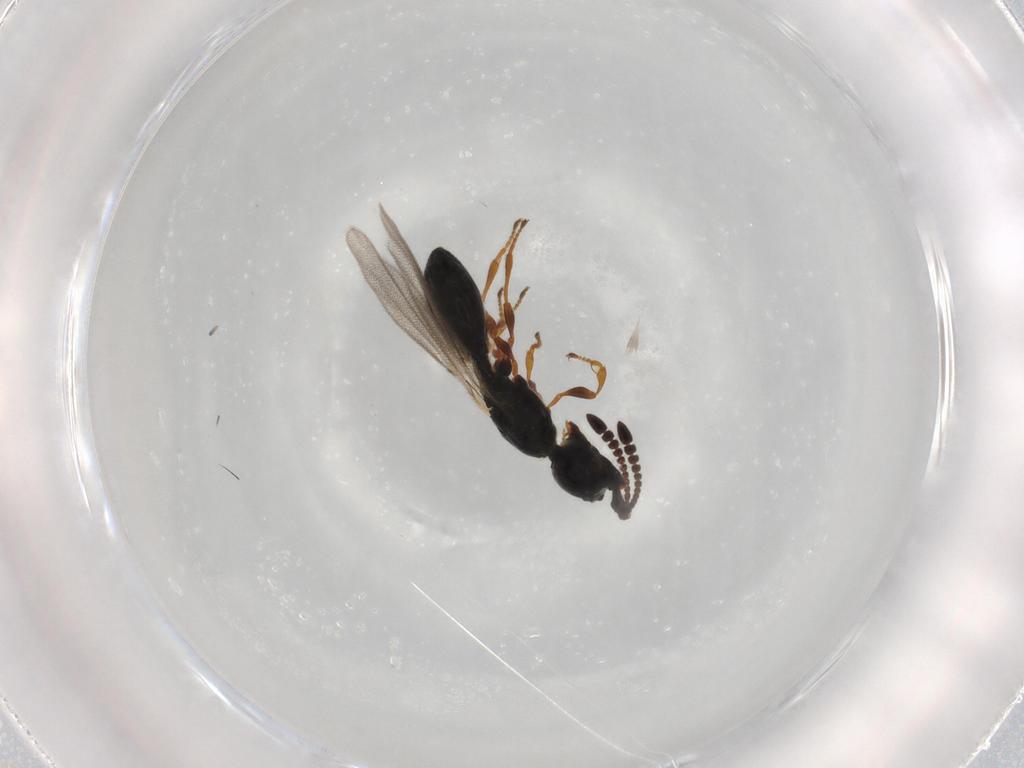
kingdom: Animalia
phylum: Arthropoda
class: Insecta
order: Hymenoptera
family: Diapriidae
